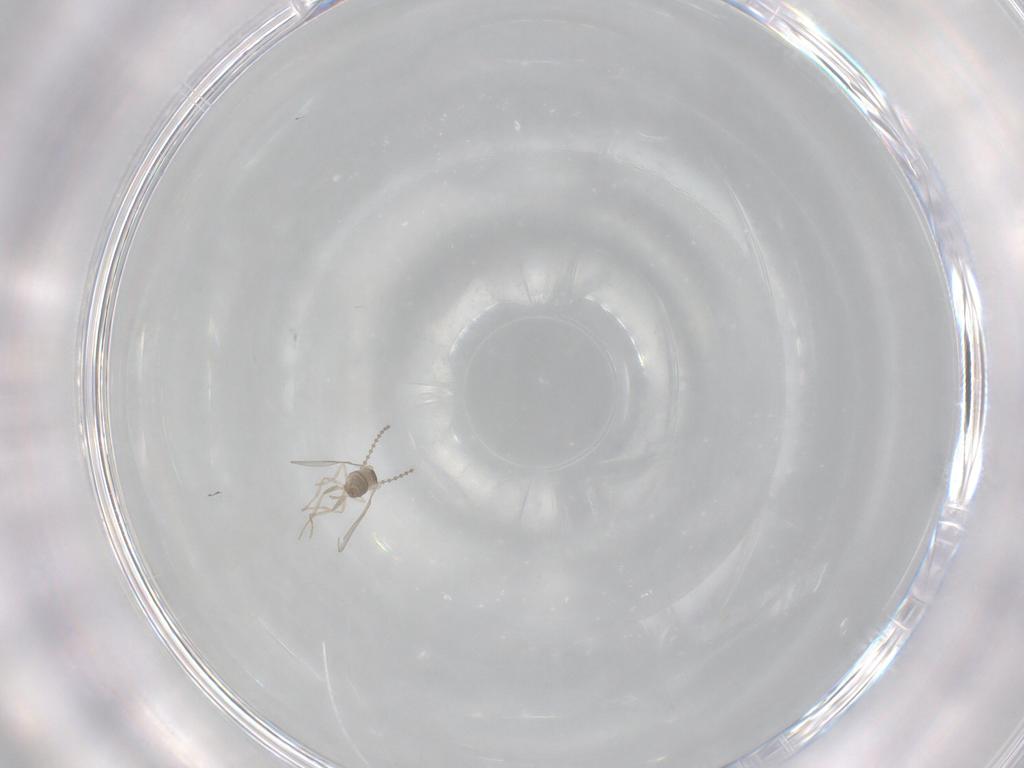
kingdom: Animalia
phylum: Arthropoda
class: Insecta
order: Diptera
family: Cecidomyiidae
